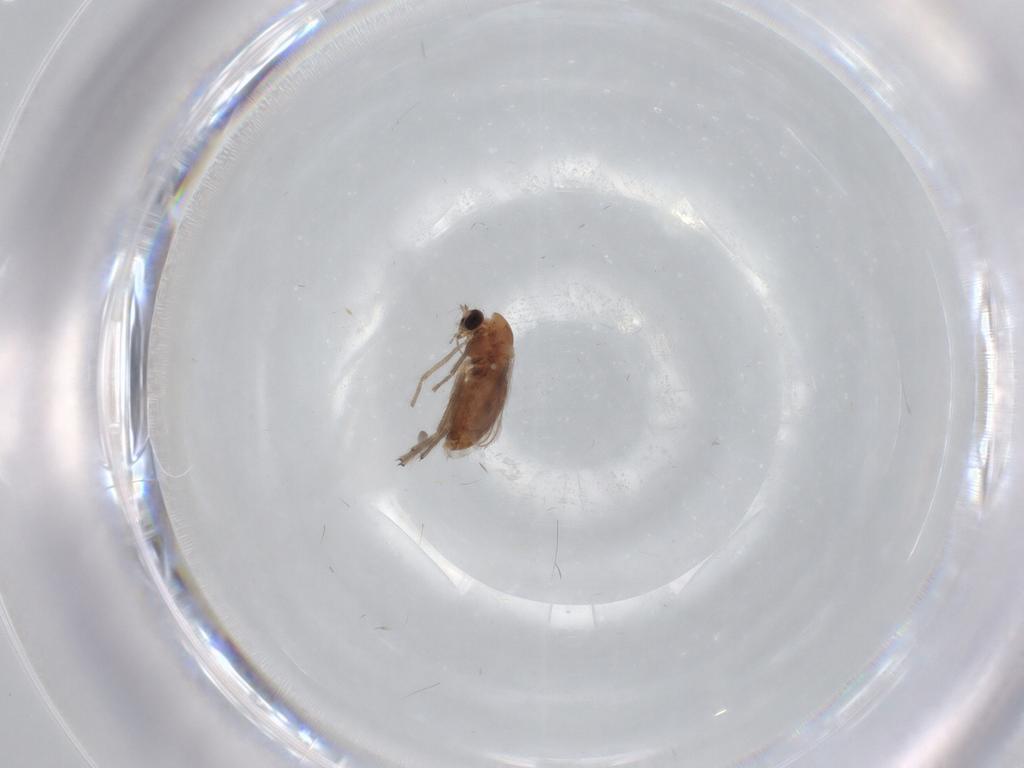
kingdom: Animalia
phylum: Arthropoda
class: Insecta
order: Diptera
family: Chironomidae
